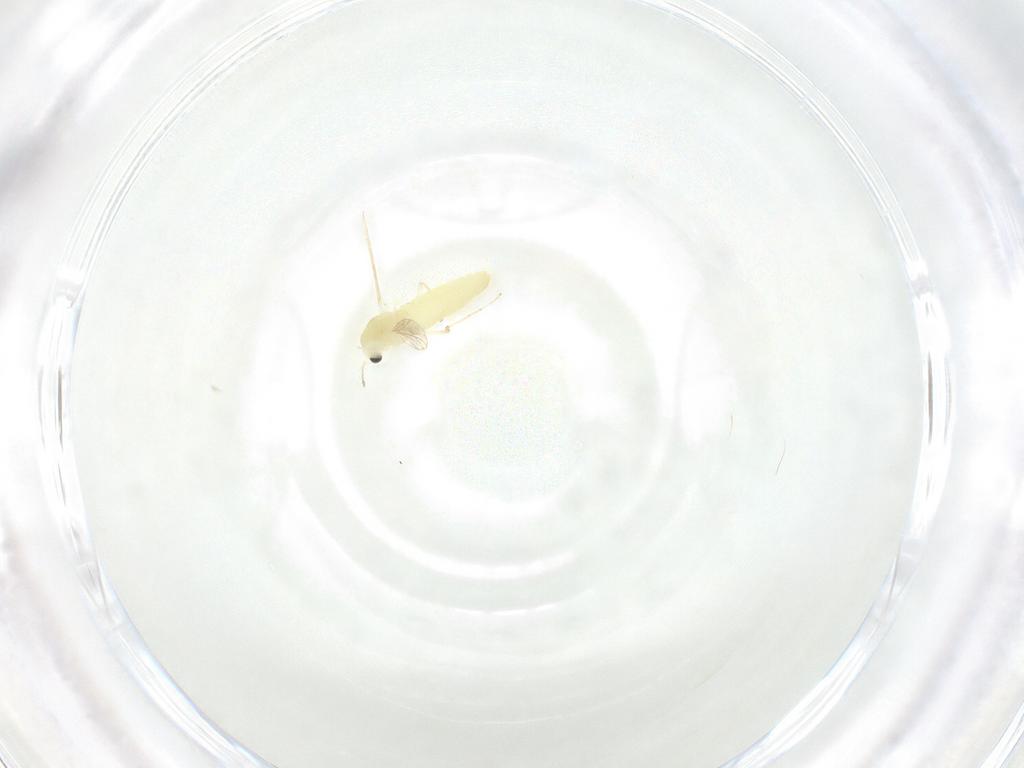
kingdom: Animalia
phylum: Arthropoda
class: Insecta
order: Diptera
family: Chironomidae
